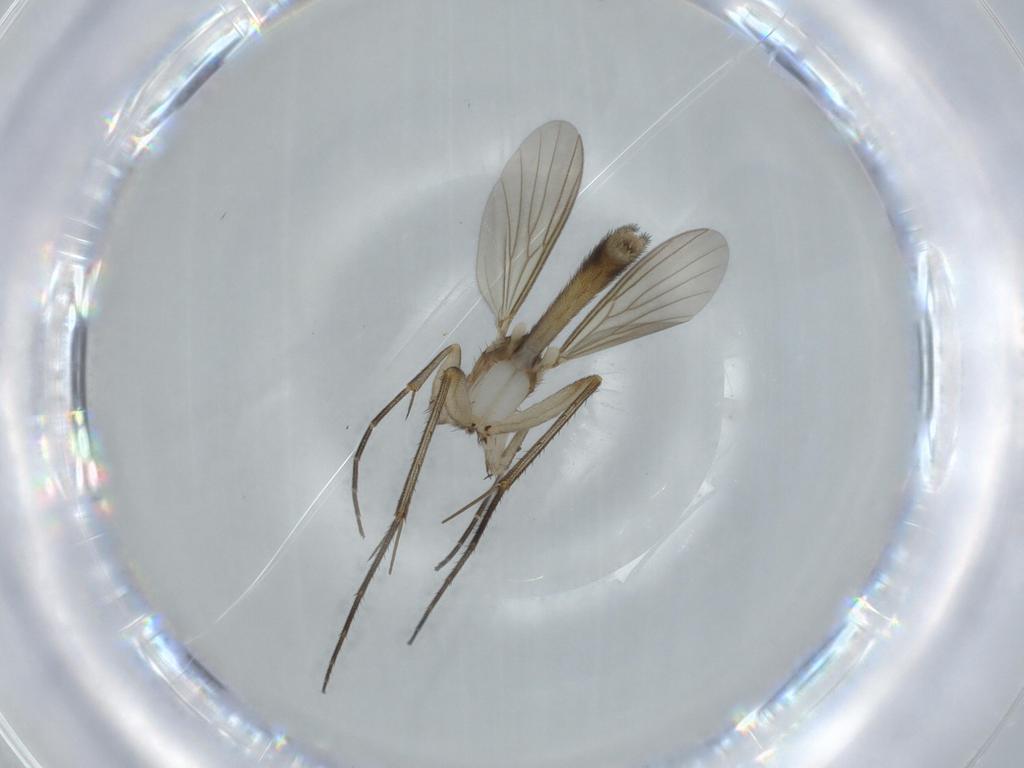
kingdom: Animalia
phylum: Arthropoda
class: Insecta
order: Diptera
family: Mycetophilidae
